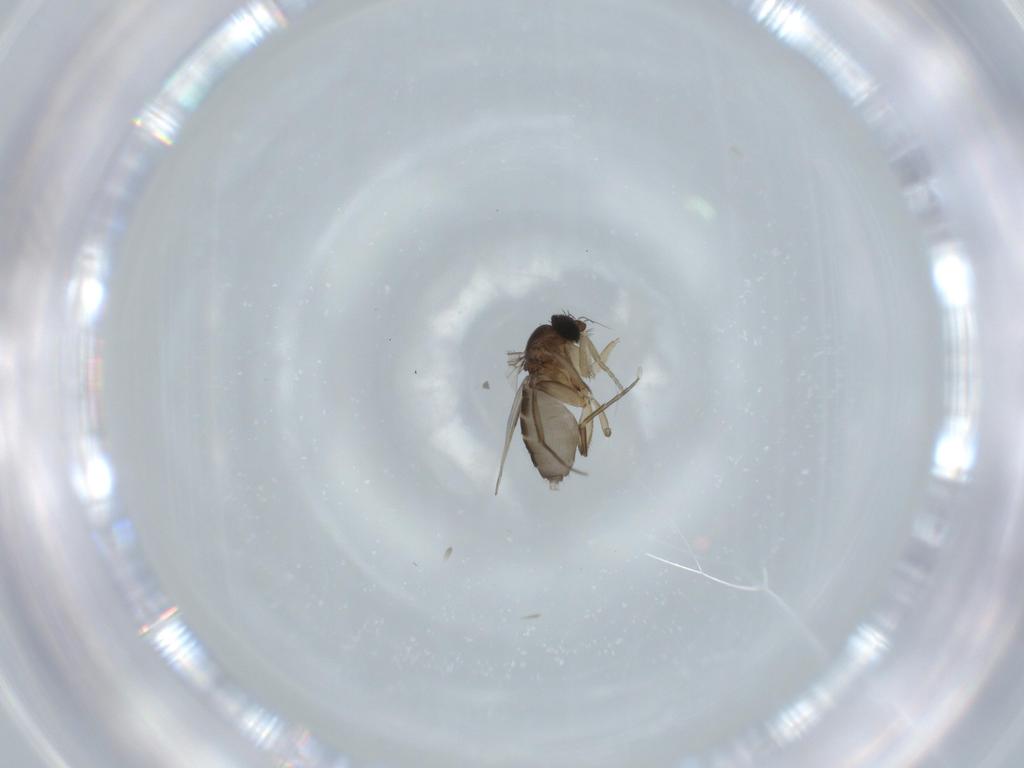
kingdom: Animalia
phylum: Arthropoda
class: Insecta
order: Diptera
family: Phoridae
